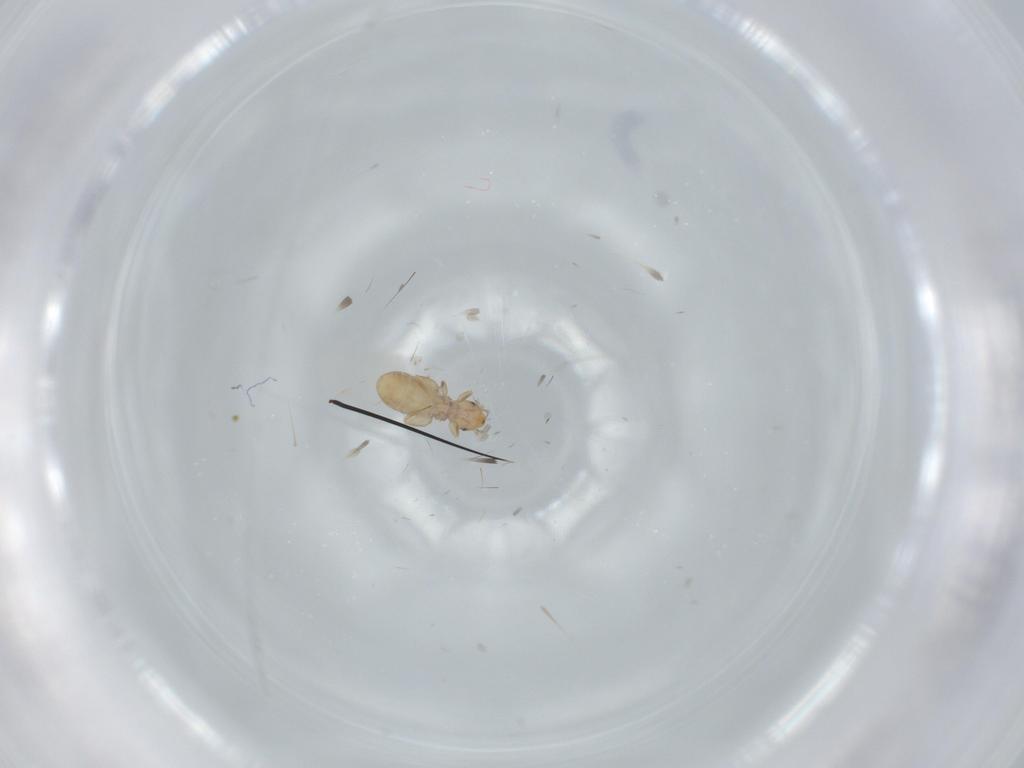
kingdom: Animalia
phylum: Arthropoda
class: Insecta
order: Psocodea
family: Liposcelididae
